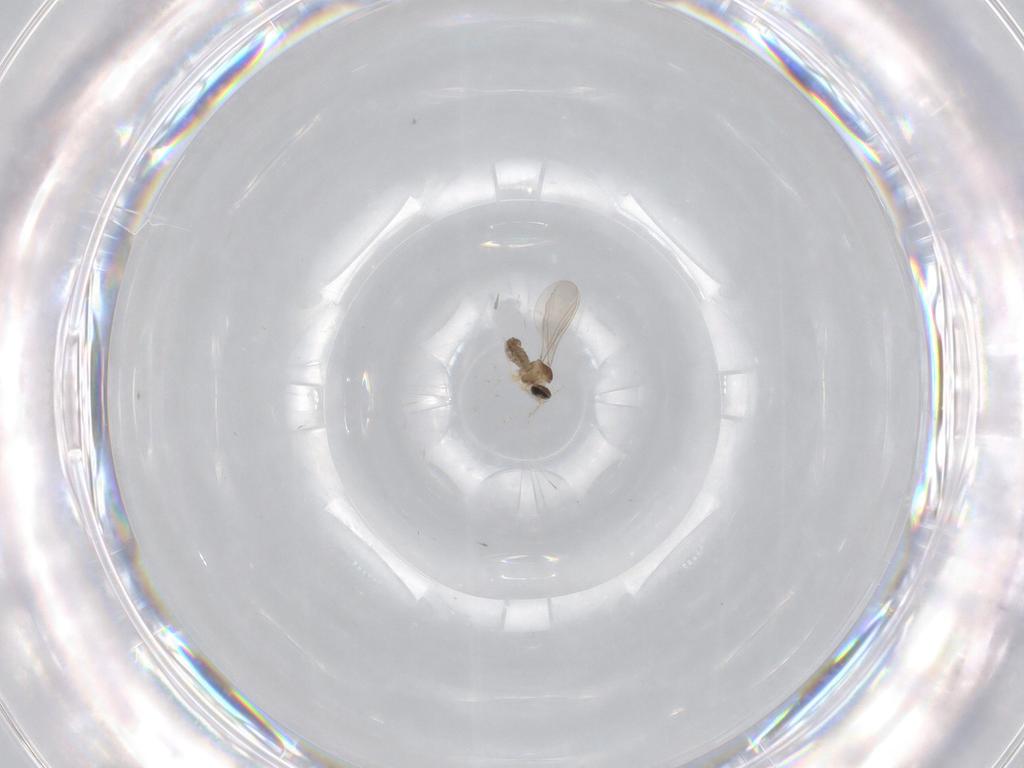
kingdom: Animalia
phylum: Arthropoda
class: Insecta
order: Diptera
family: Cecidomyiidae
